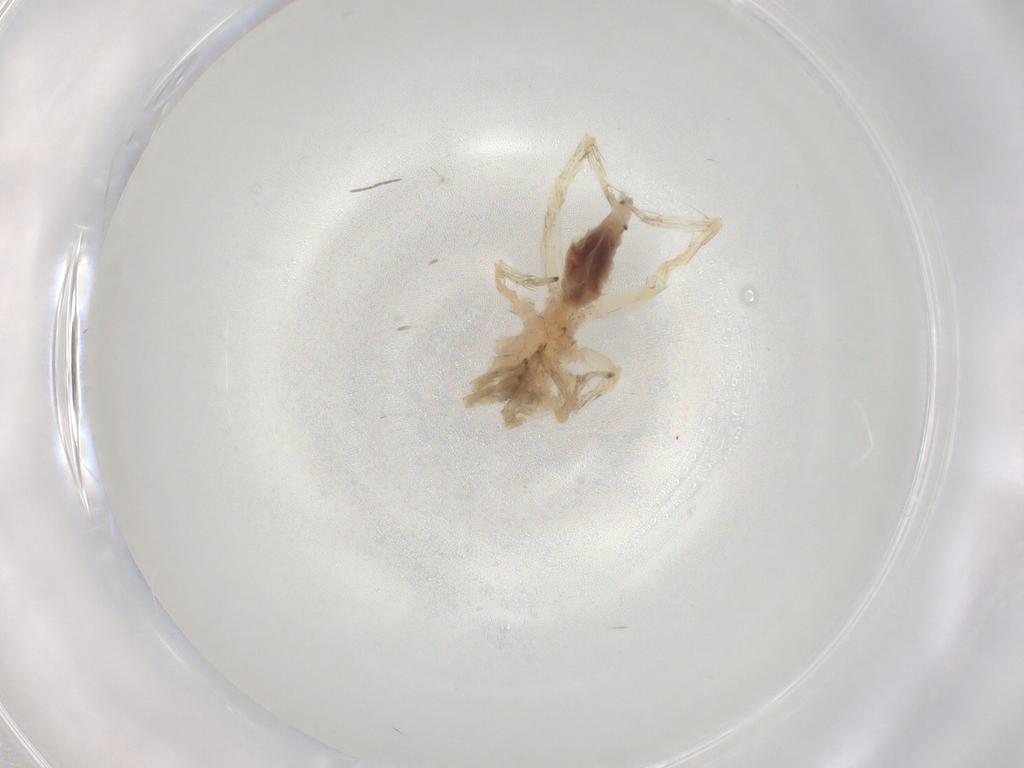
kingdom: Animalia
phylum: Arthropoda
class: Arachnida
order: Araneae
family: Clubionidae
